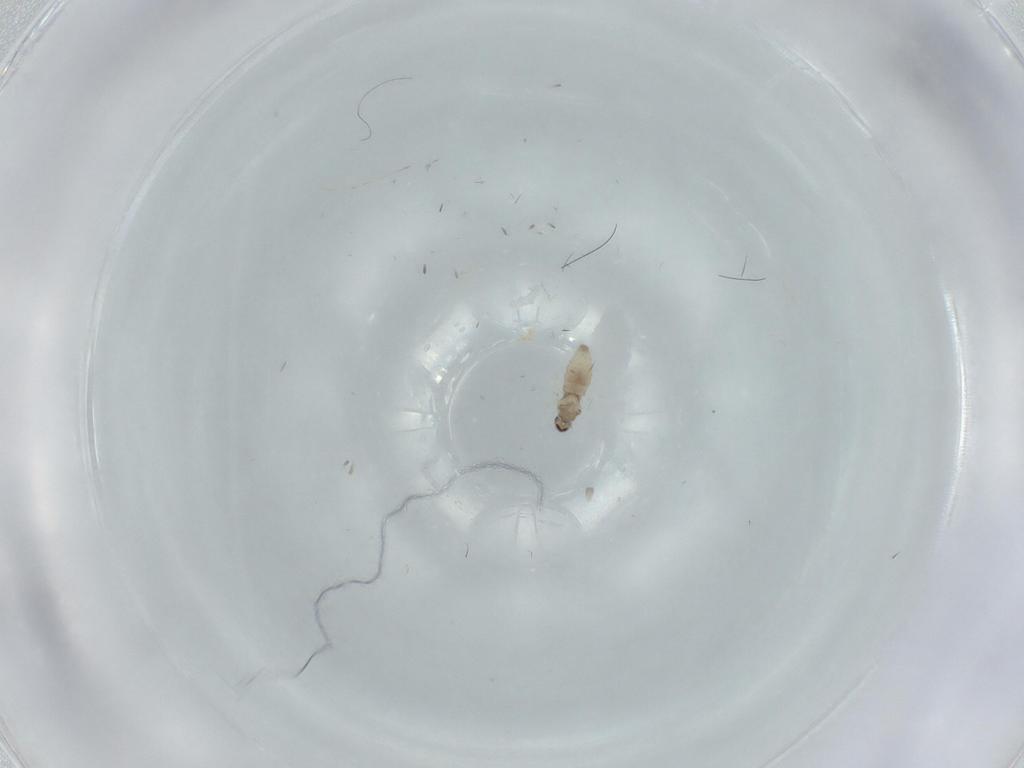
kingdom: Animalia
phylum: Arthropoda
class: Insecta
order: Diptera
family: Cecidomyiidae
